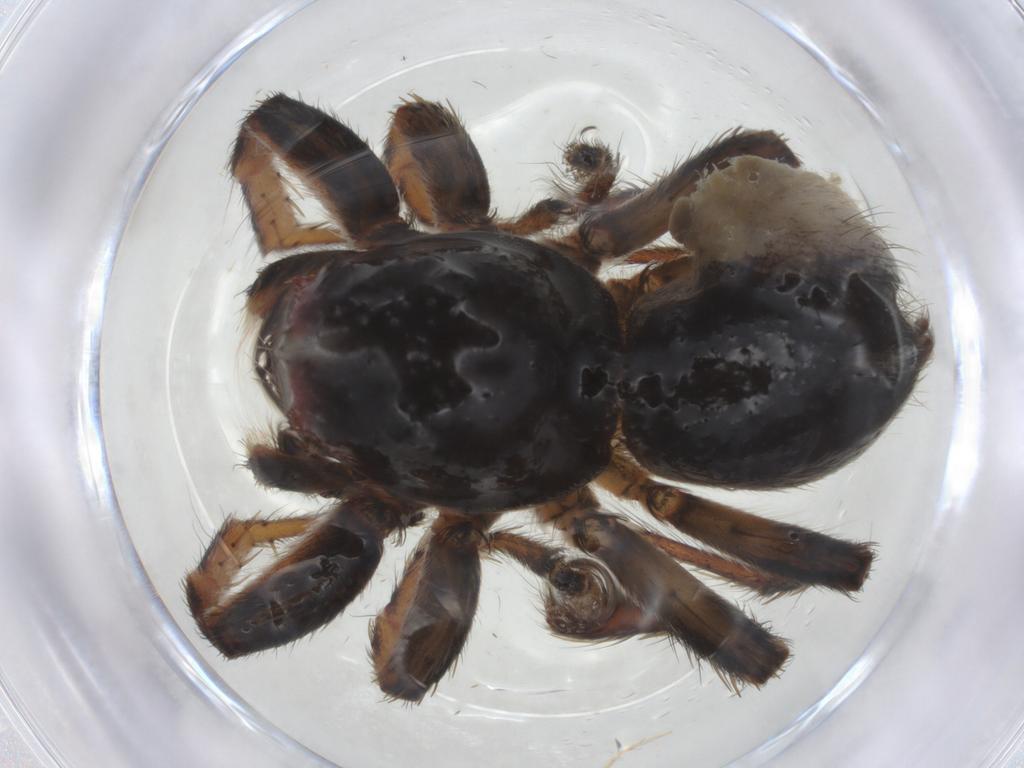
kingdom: Animalia
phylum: Arthropoda
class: Arachnida
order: Araneae
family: Salticidae
